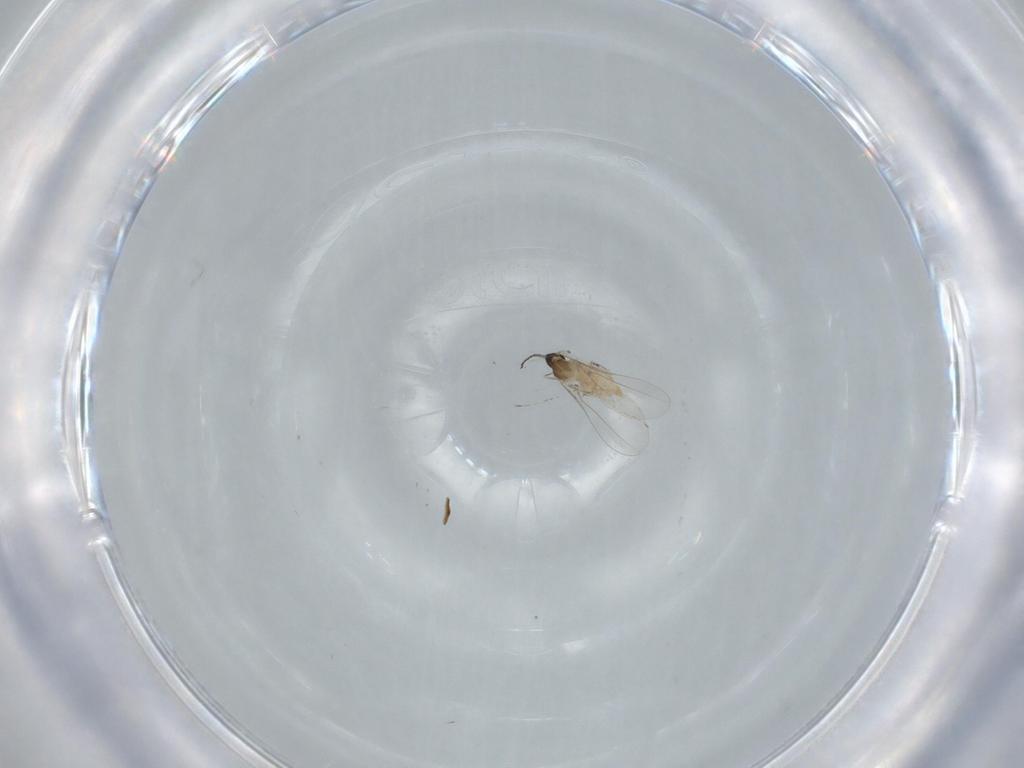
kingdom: Animalia
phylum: Arthropoda
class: Insecta
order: Diptera
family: Cecidomyiidae
